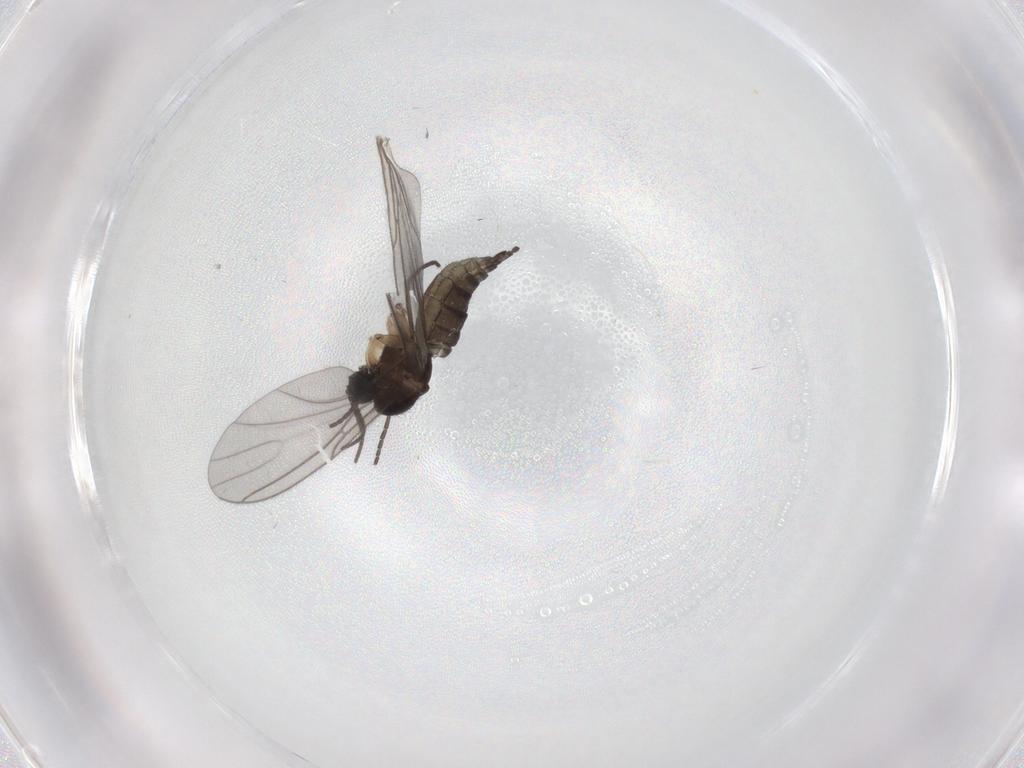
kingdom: Animalia
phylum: Arthropoda
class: Insecta
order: Diptera
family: Sciaridae
